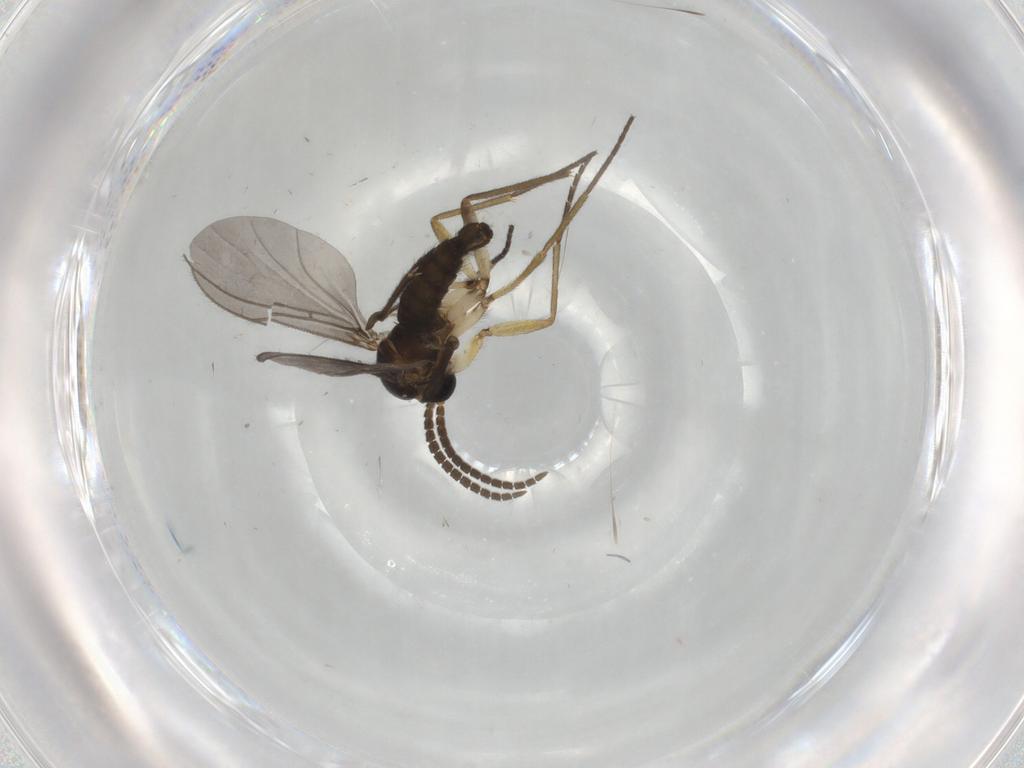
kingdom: Animalia
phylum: Arthropoda
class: Insecta
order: Diptera
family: Sciaridae
